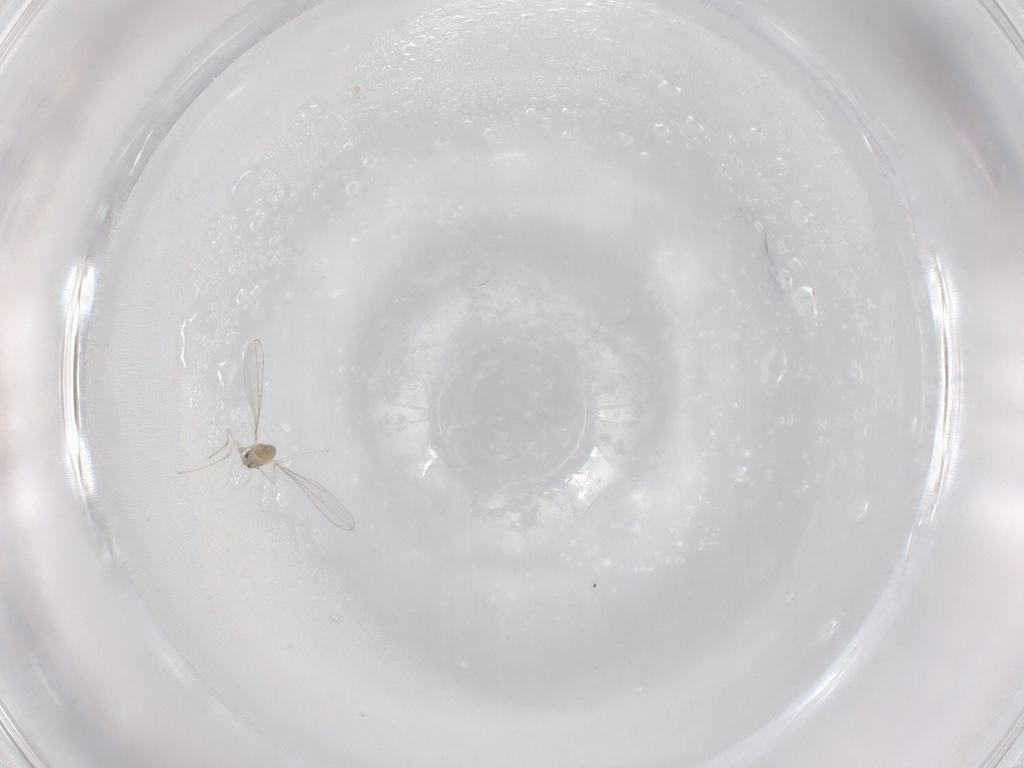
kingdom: Animalia
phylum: Arthropoda
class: Insecta
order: Diptera
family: Cecidomyiidae
